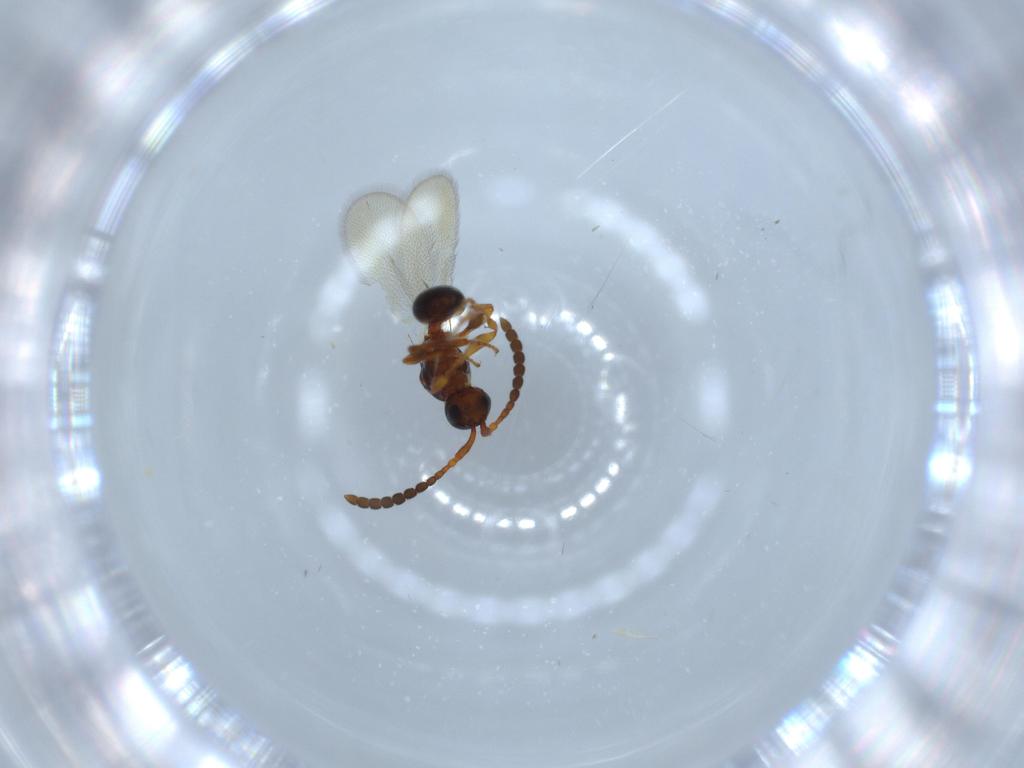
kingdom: Animalia
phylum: Arthropoda
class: Insecta
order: Hymenoptera
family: Diapriidae
